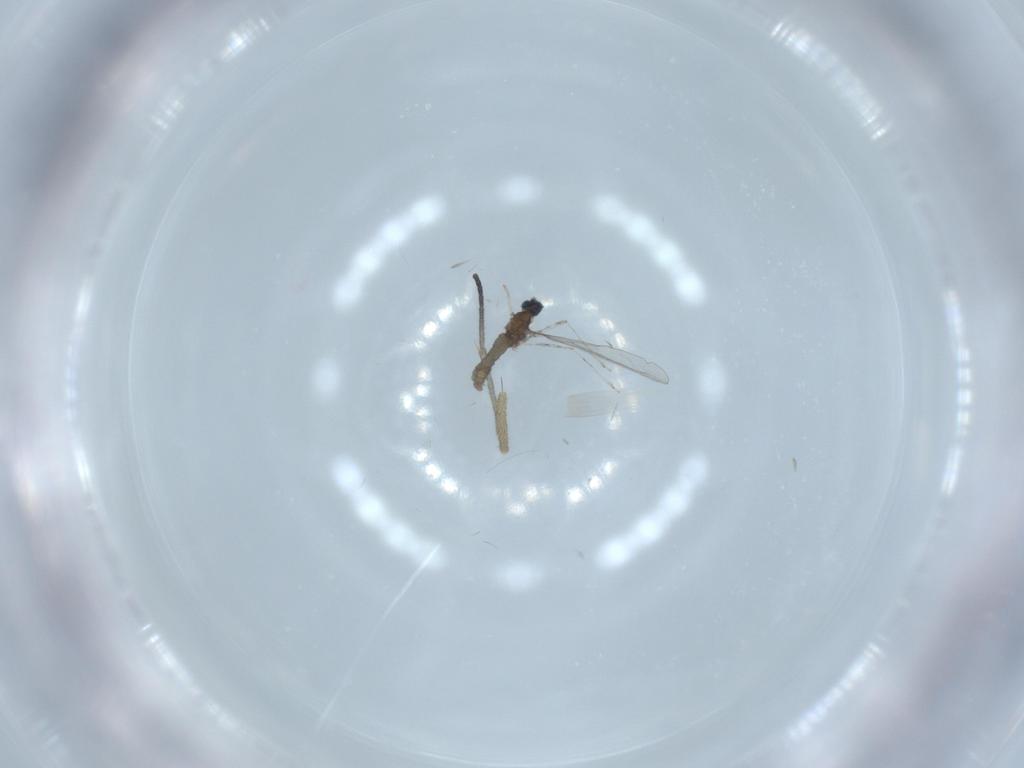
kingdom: Animalia
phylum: Arthropoda
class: Insecta
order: Diptera
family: Cecidomyiidae
